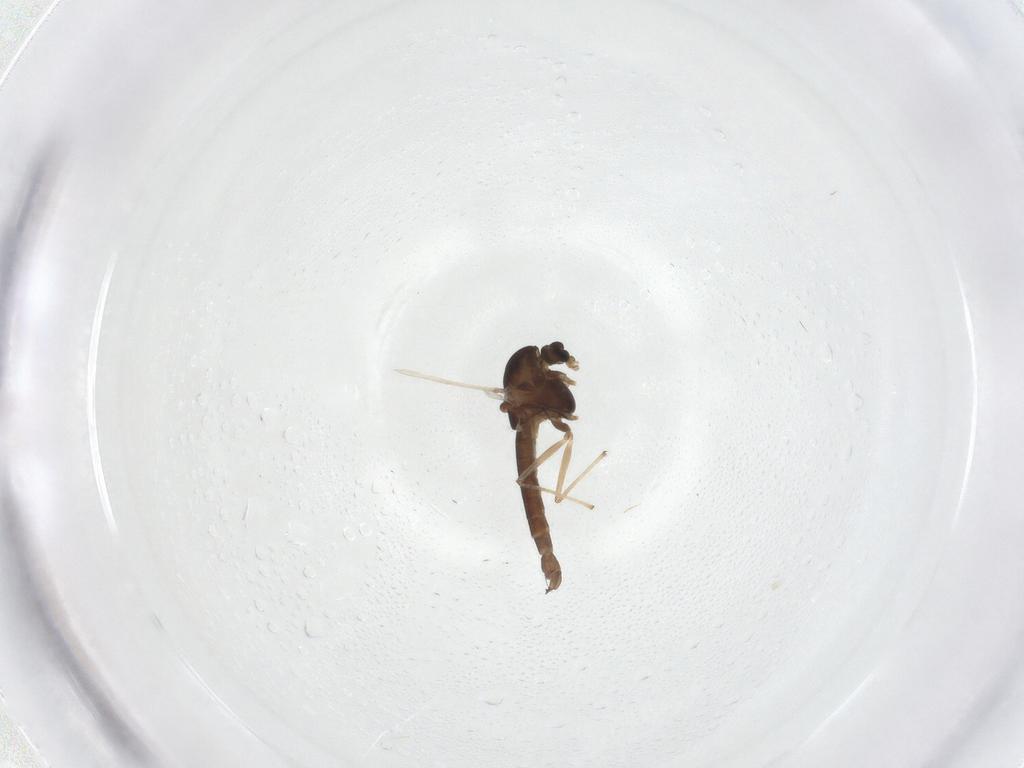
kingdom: Animalia
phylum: Arthropoda
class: Insecta
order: Diptera
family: Chironomidae
